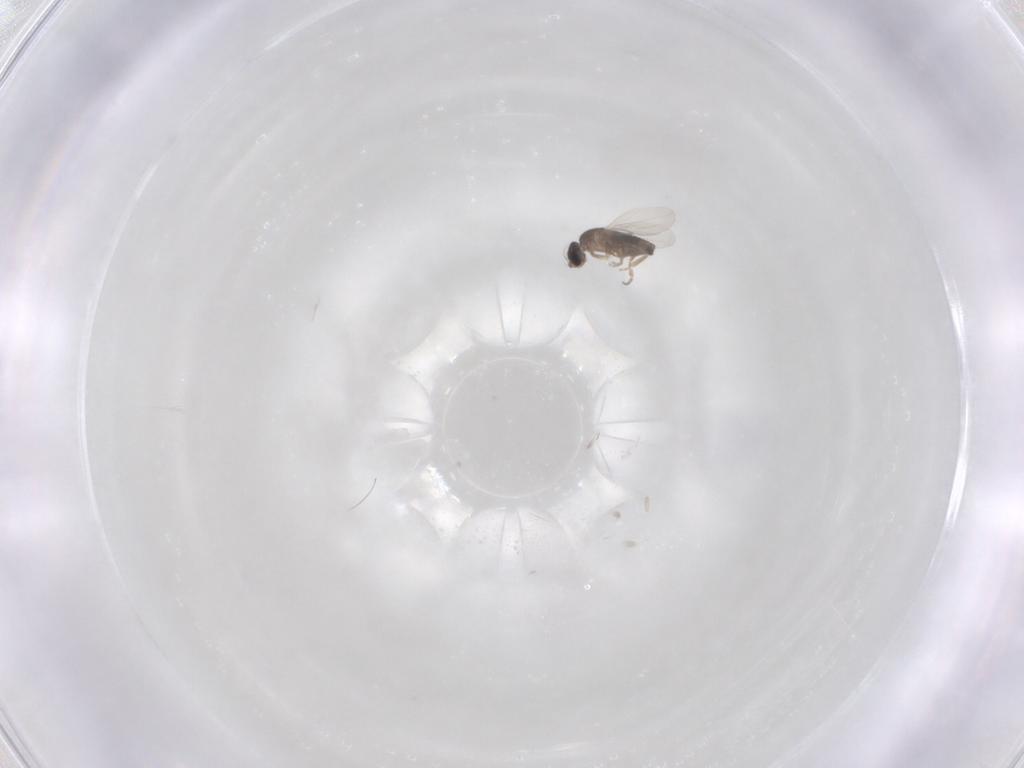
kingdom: Animalia
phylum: Arthropoda
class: Insecta
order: Diptera
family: Phoridae
